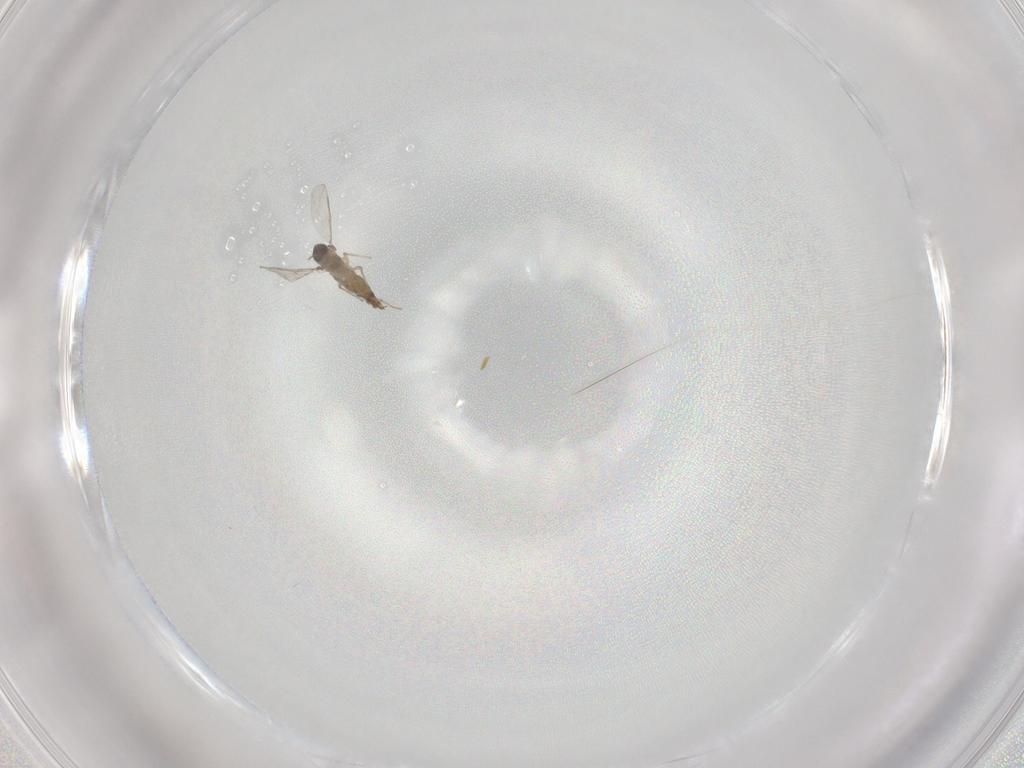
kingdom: Animalia
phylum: Arthropoda
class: Insecta
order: Diptera
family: Chironomidae
